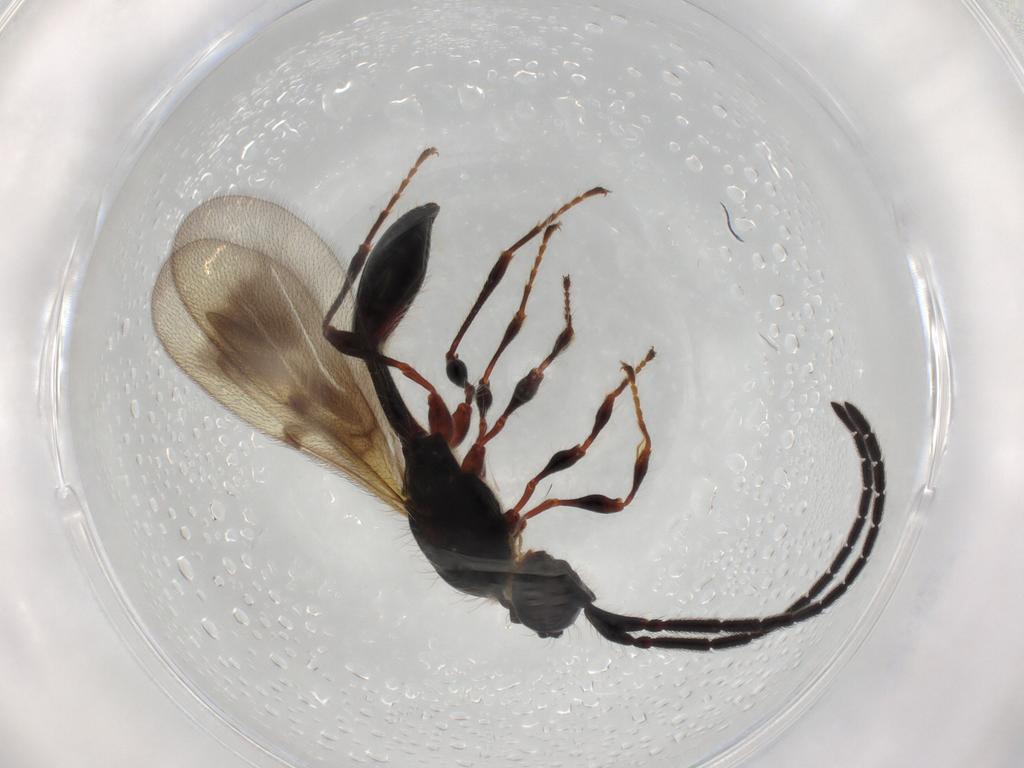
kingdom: Animalia
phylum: Arthropoda
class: Insecta
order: Hymenoptera
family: Diapriidae
